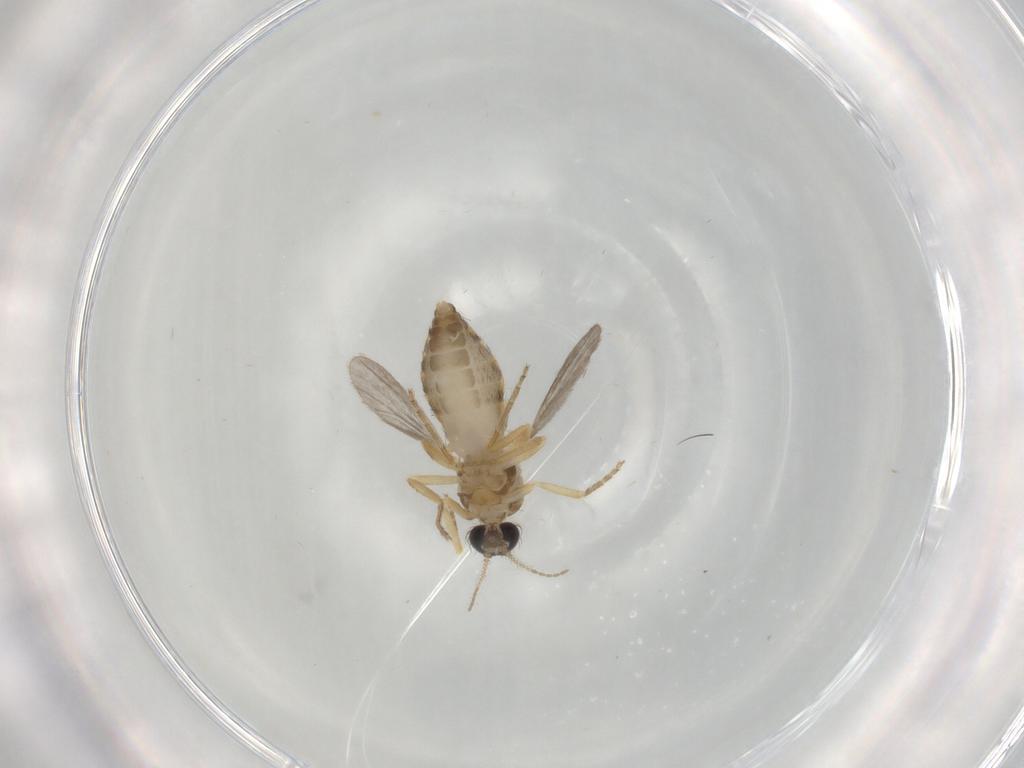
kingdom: Animalia
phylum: Arthropoda
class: Insecta
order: Diptera
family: Ceratopogonidae
